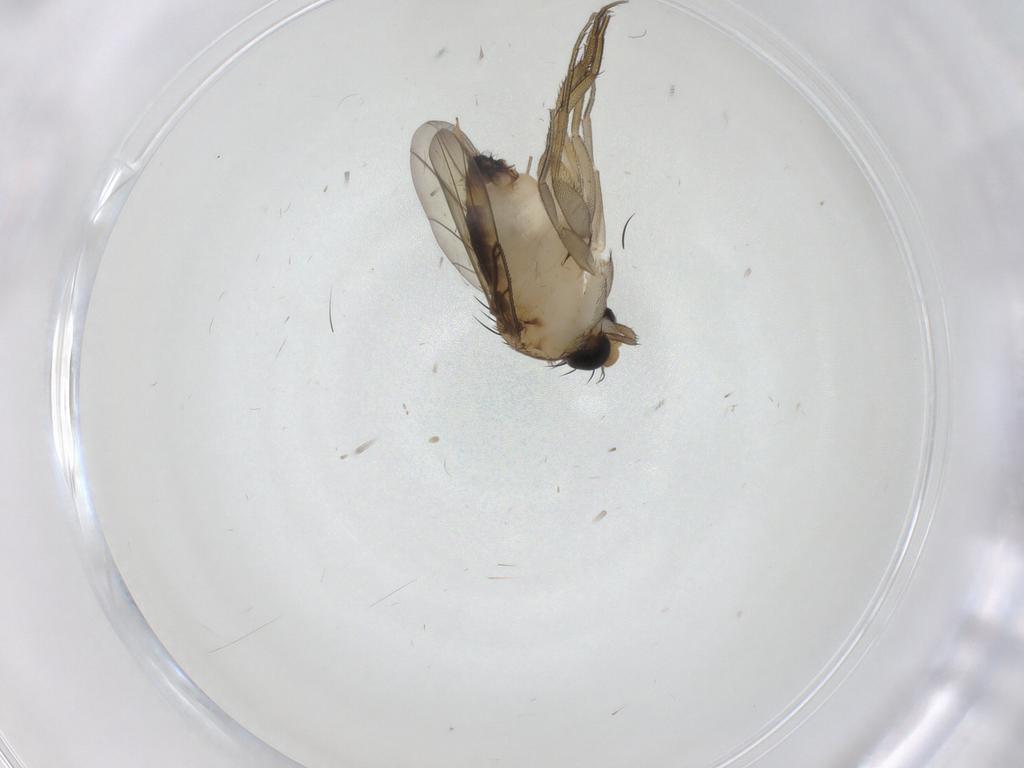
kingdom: Animalia
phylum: Arthropoda
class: Insecta
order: Diptera
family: Phoridae
